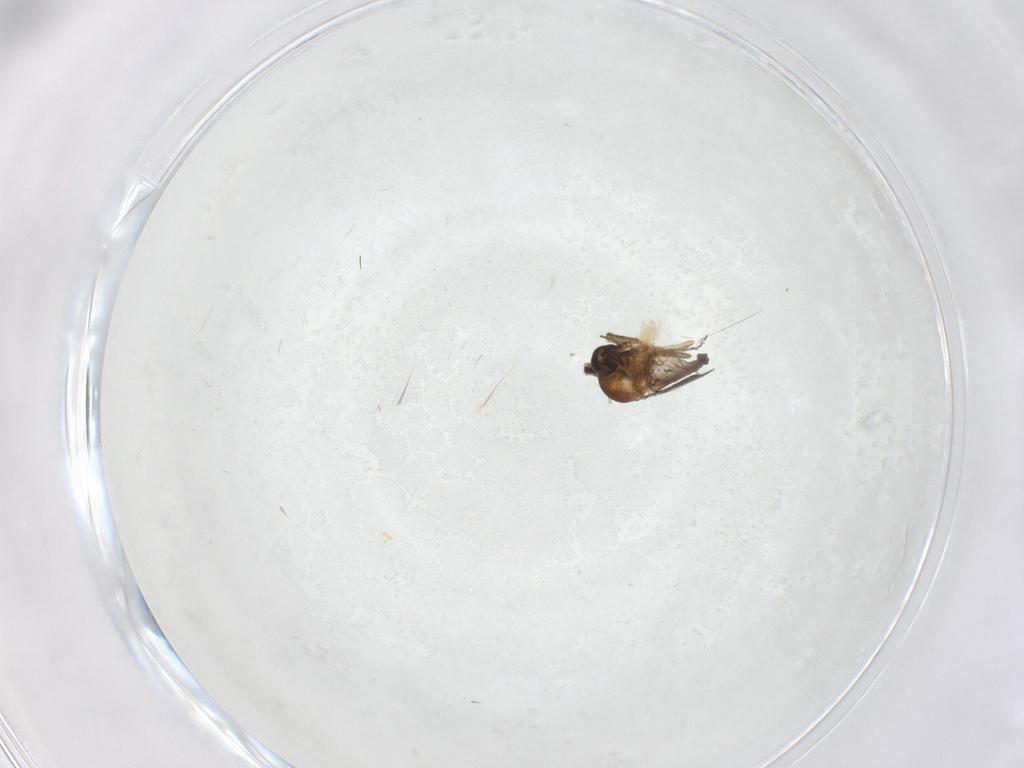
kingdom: Animalia
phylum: Arthropoda
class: Insecta
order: Diptera
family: Ceratopogonidae
